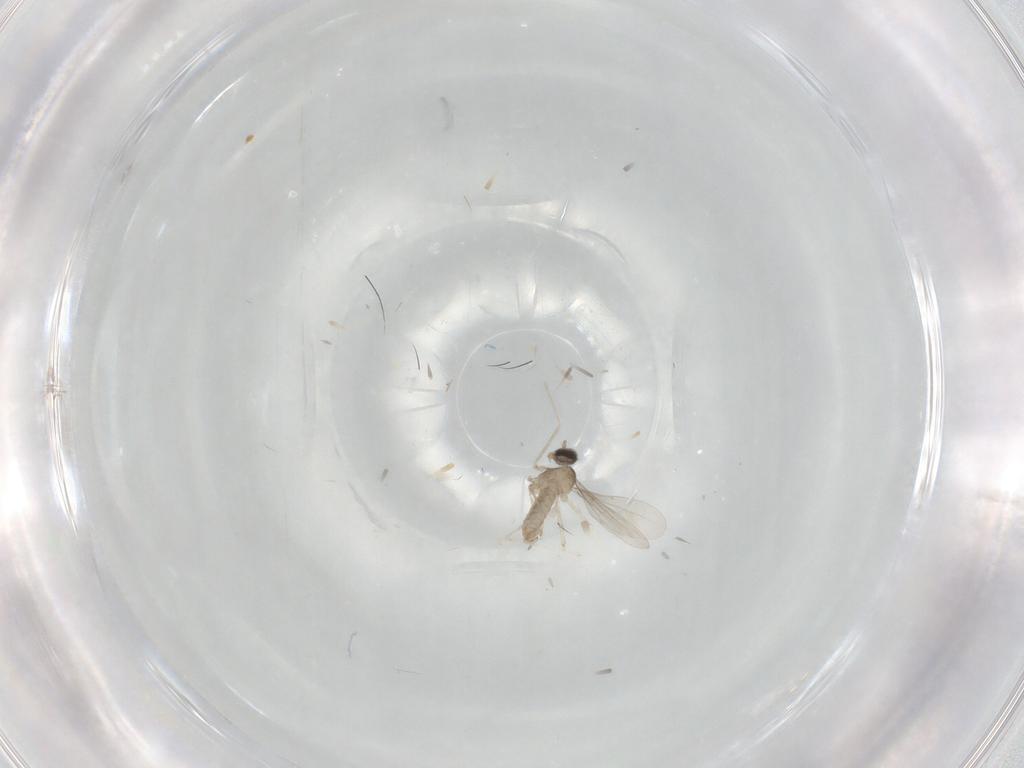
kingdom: Animalia
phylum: Arthropoda
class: Insecta
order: Diptera
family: Cecidomyiidae
